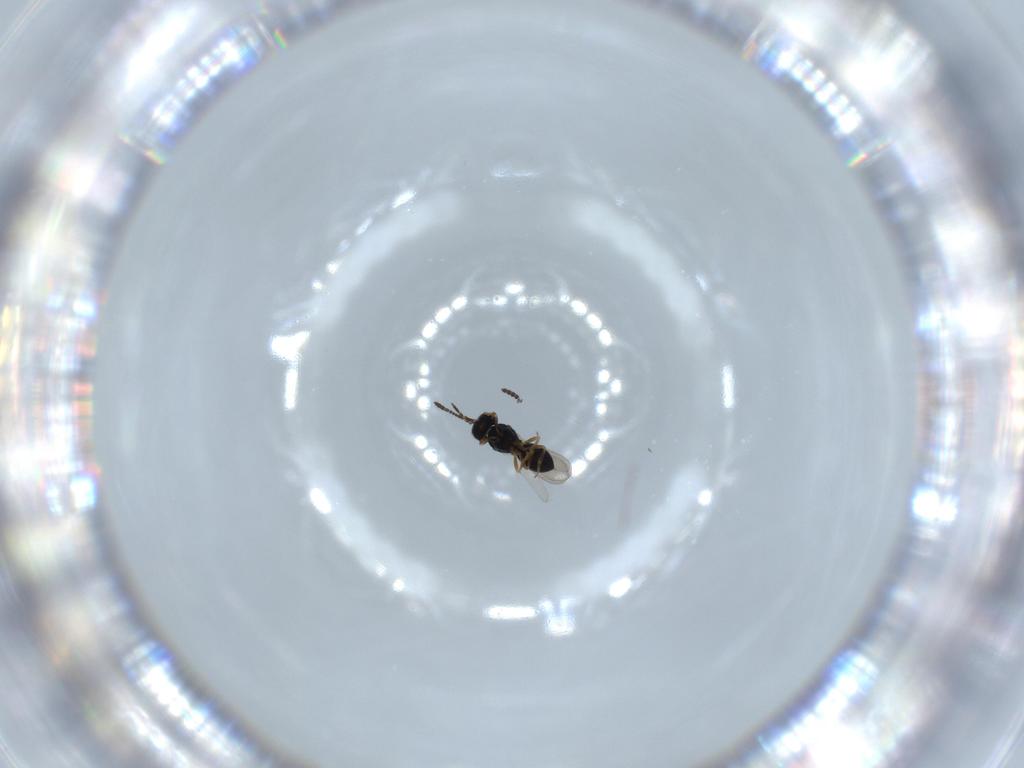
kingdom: Animalia
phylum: Arthropoda
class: Insecta
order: Hymenoptera
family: Scelionidae
